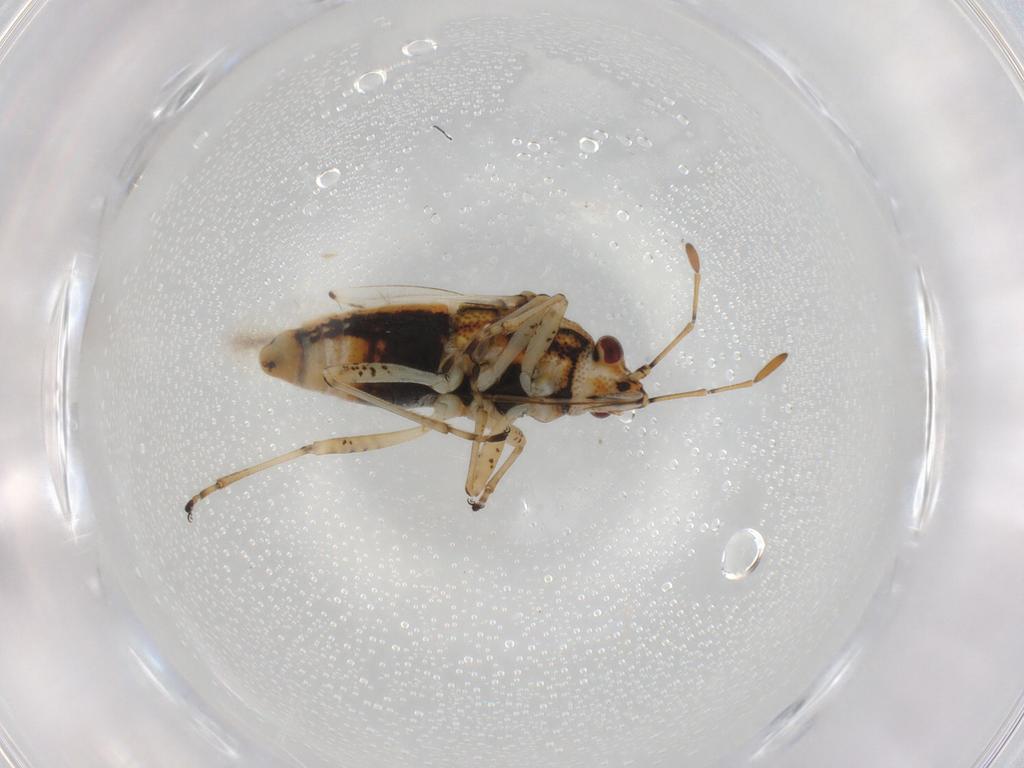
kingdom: Animalia
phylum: Arthropoda
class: Insecta
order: Hemiptera
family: Lygaeidae
